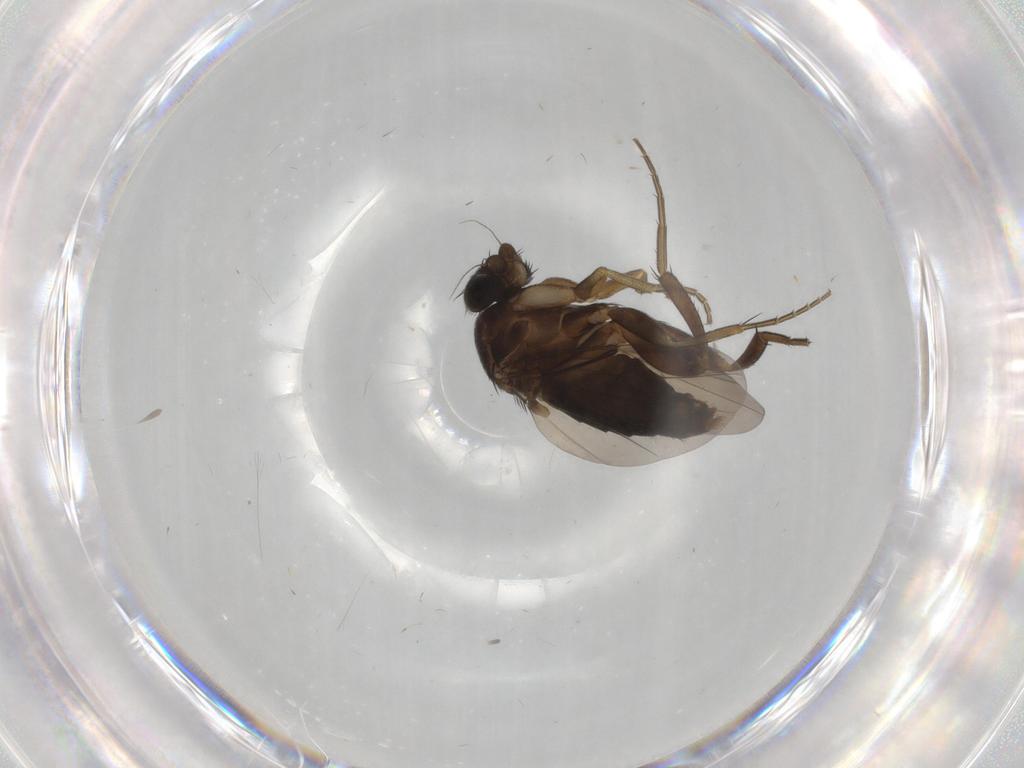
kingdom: Animalia
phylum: Arthropoda
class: Insecta
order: Diptera
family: Phoridae
